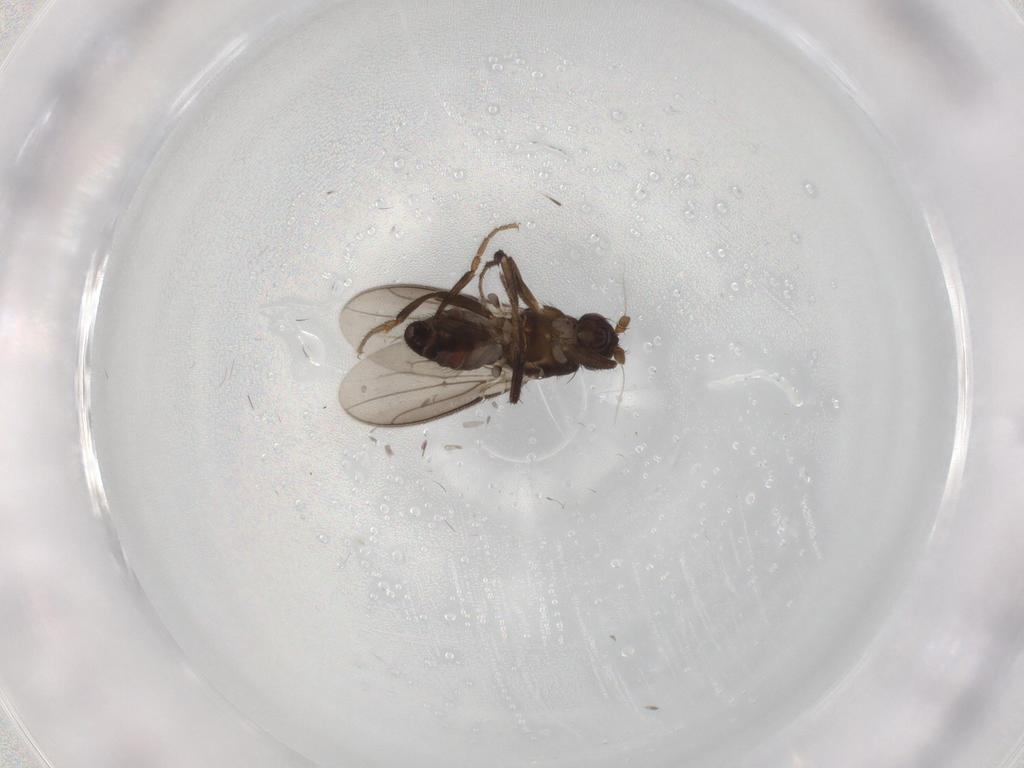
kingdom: Animalia
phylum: Arthropoda
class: Insecta
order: Diptera
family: Sphaeroceridae
